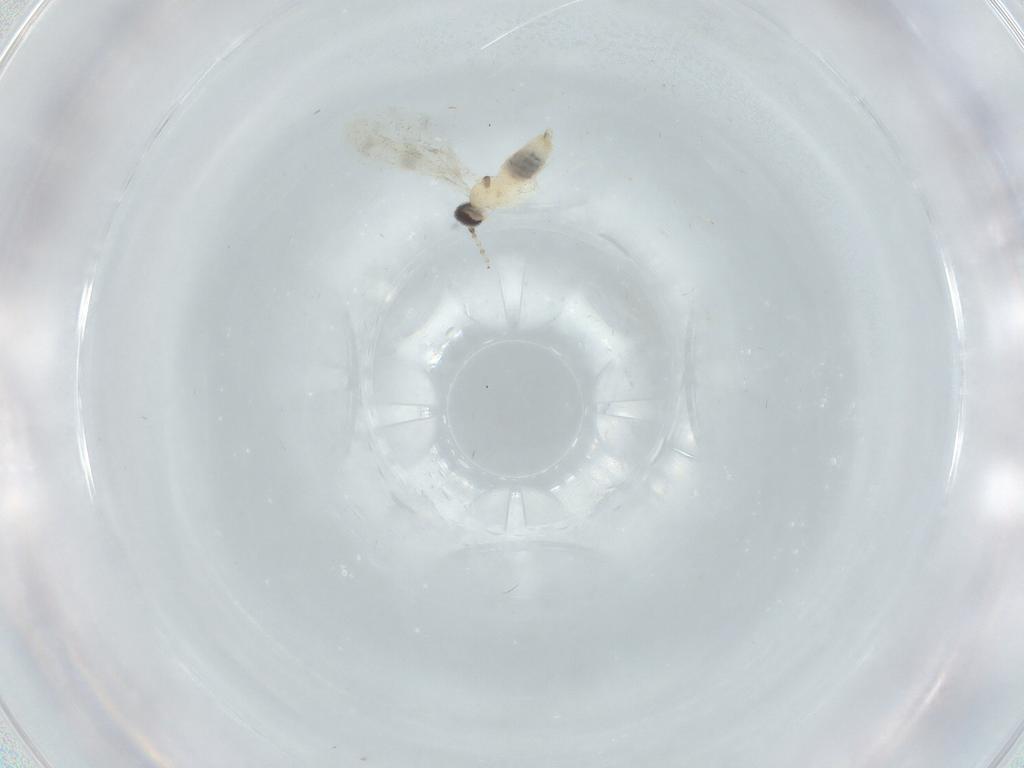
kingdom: Animalia
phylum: Arthropoda
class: Insecta
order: Diptera
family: Cecidomyiidae
